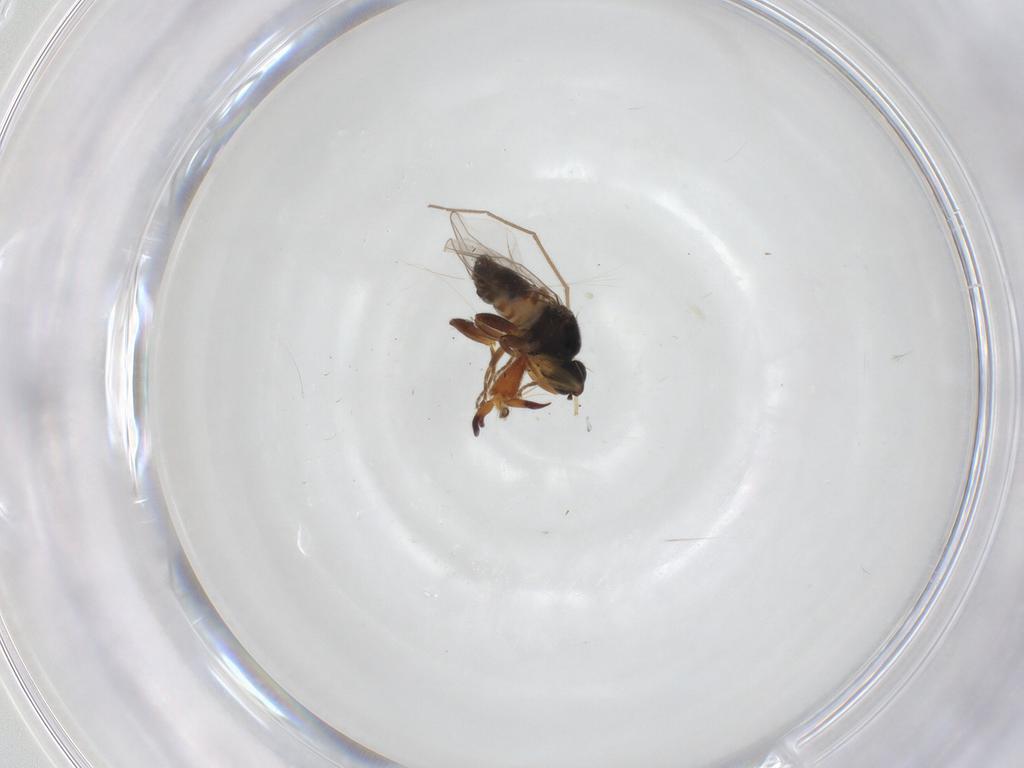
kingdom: Animalia
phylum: Arthropoda
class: Insecta
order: Diptera
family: Hybotidae
